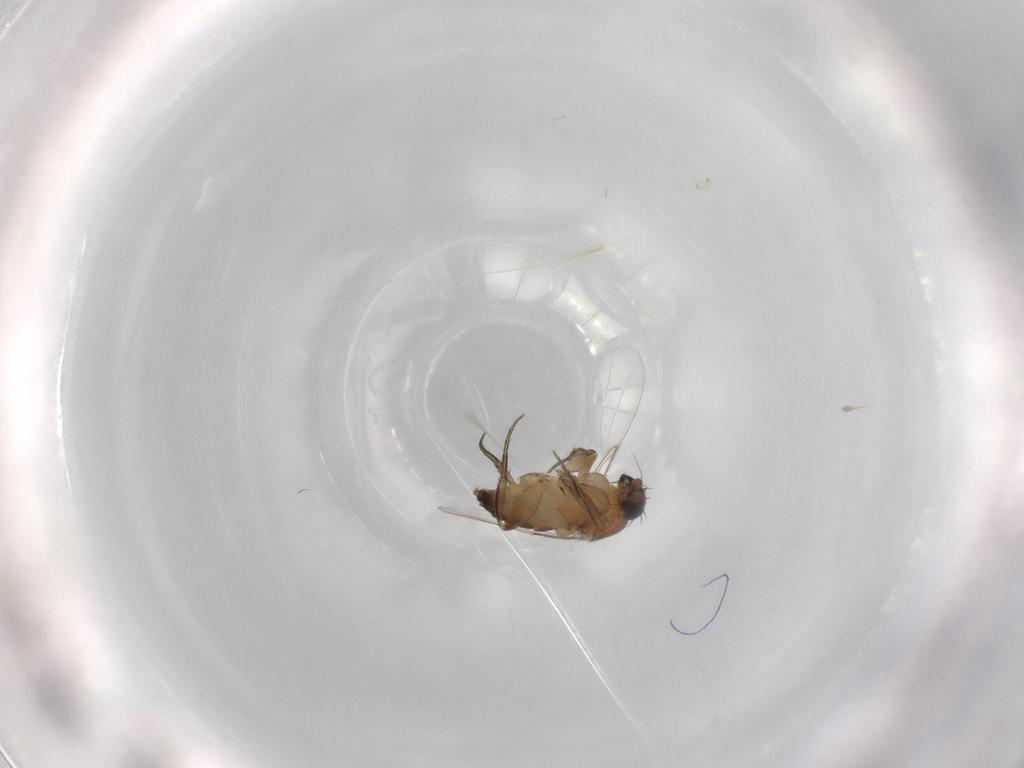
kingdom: Animalia
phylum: Arthropoda
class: Insecta
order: Diptera
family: Phoridae
